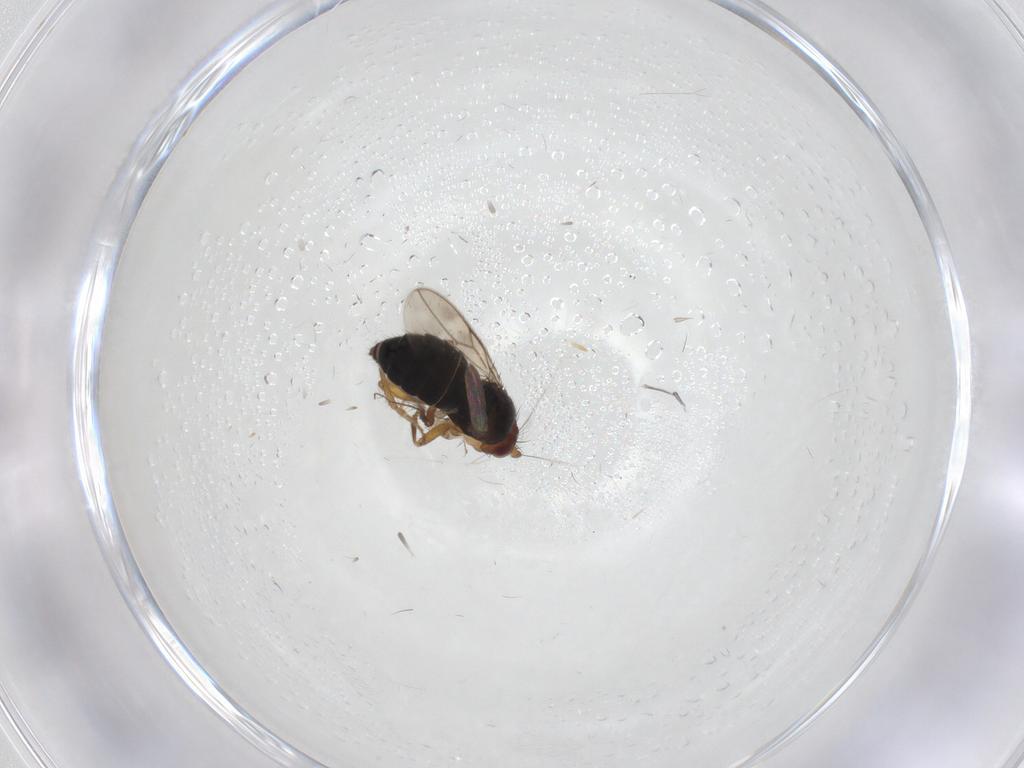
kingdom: Animalia
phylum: Arthropoda
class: Insecta
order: Diptera
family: Sphaeroceridae
